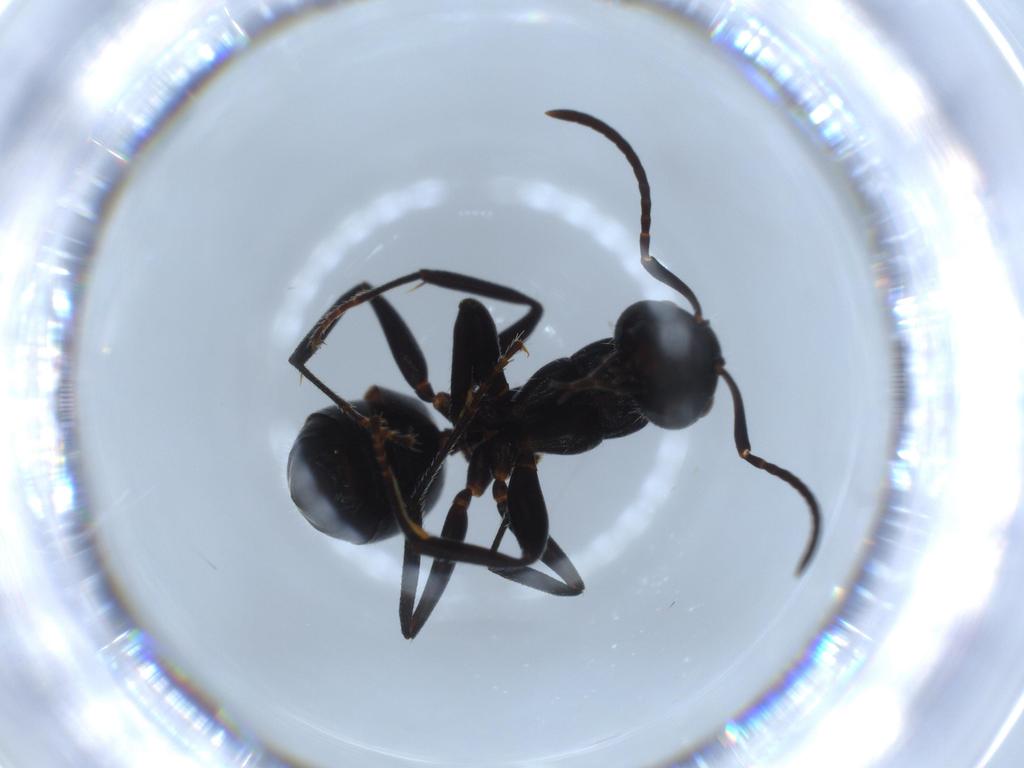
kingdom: Animalia
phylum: Arthropoda
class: Insecta
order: Hymenoptera
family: Formicidae
